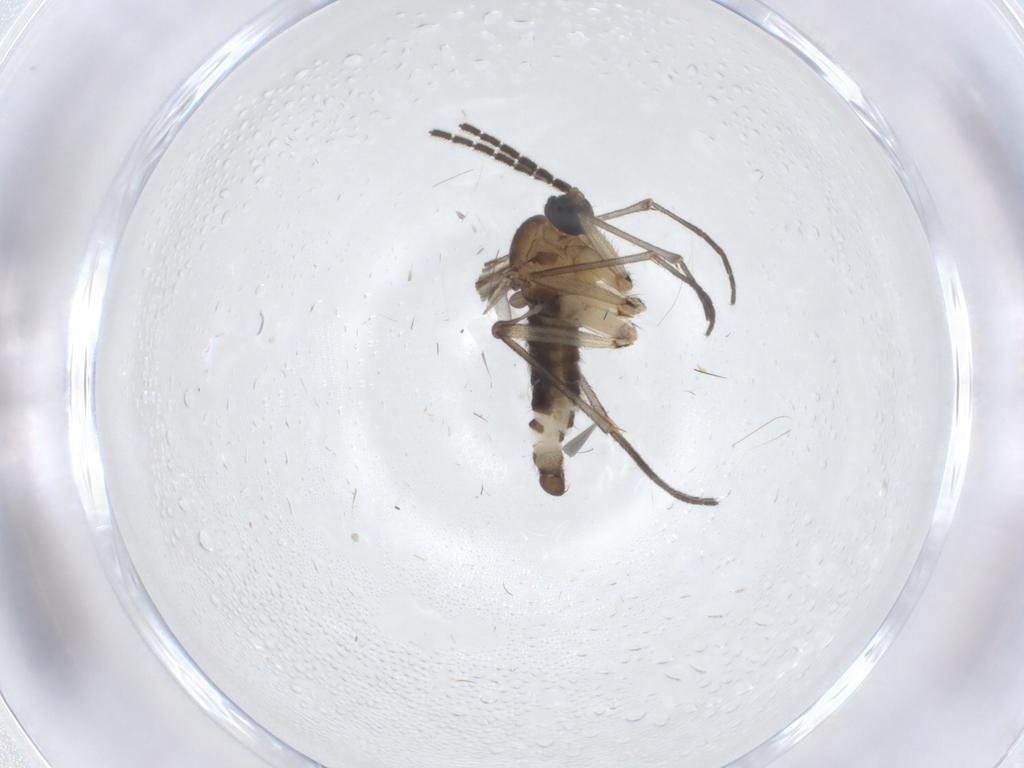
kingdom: Animalia
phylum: Arthropoda
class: Insecta
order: Diptera
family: Sciaridae
